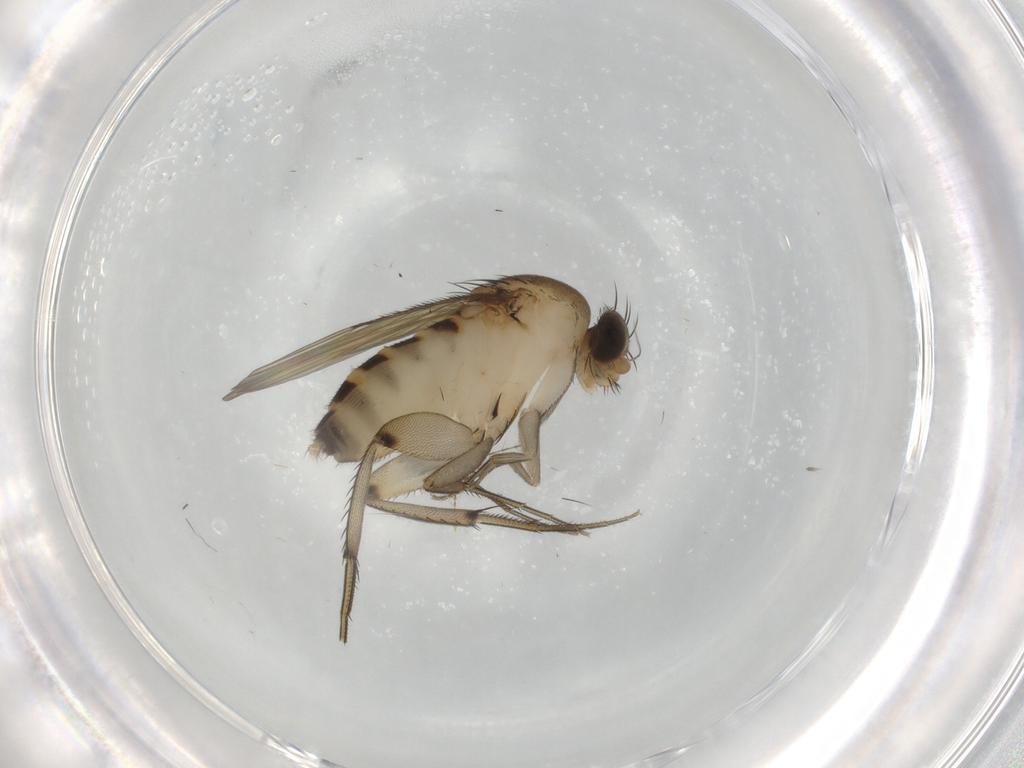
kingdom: Animalia
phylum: Arthropoda
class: Insecta
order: Diptera
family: Phoridae
